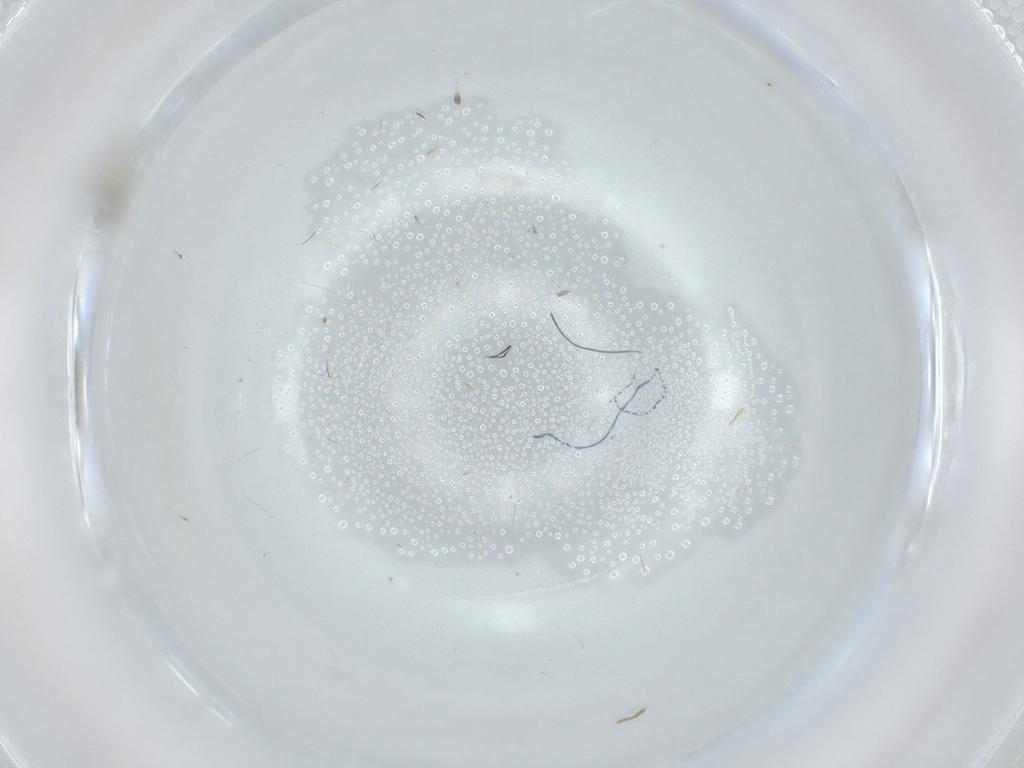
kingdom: Animalia
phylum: Arthropoda
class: Insecta
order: Diptera
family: Cecidomyiidae
